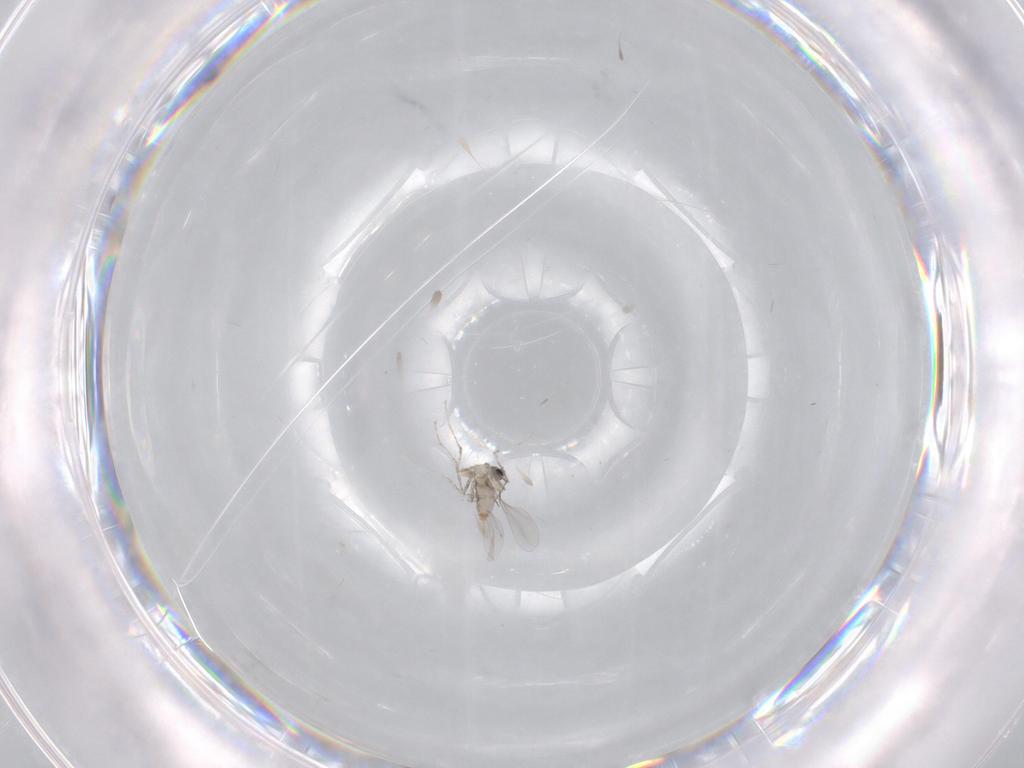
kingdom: Animalia
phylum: Arthropoda
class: Insecta
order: Diptera
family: Cecidomyiidae
